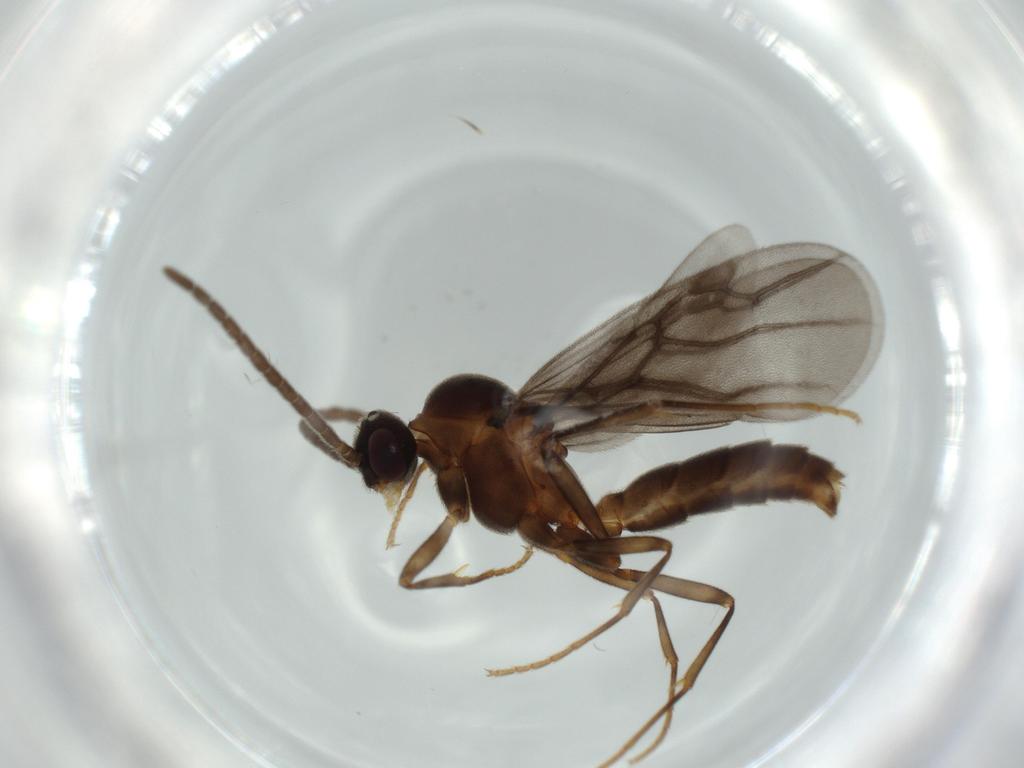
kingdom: Animalia
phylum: Arthropoda
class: Insecta
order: Hymenoptera
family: Formicidae
